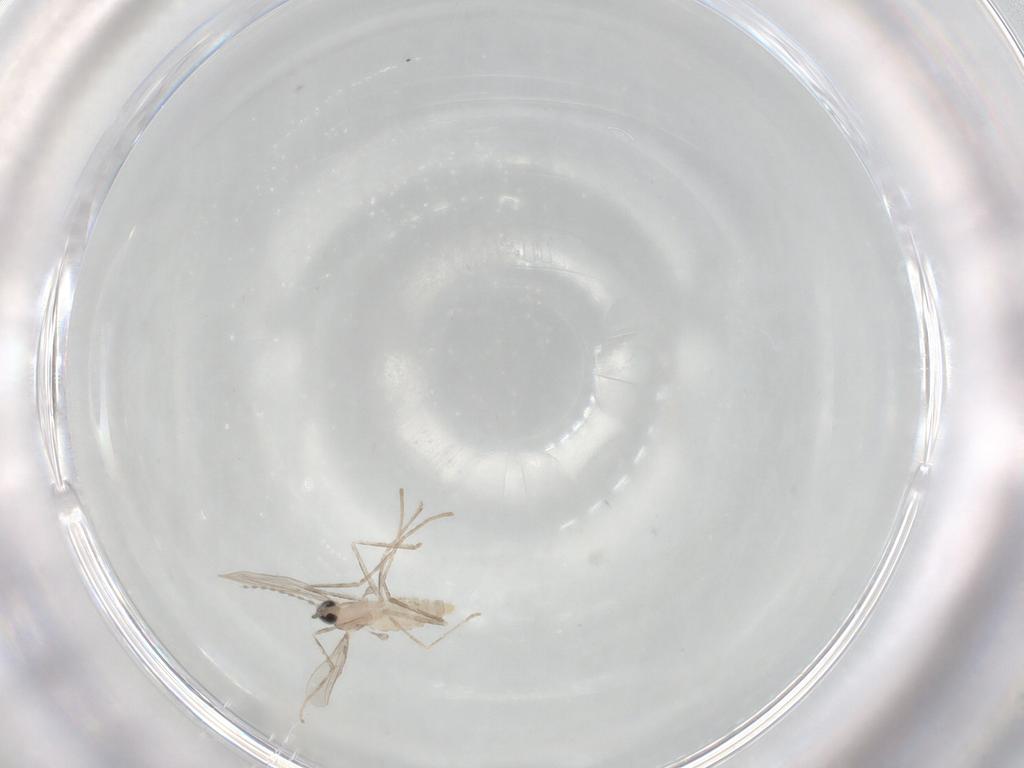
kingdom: Animalia
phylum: Arthropoda
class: Insecta
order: Diptera
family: Cecidomyiidae
